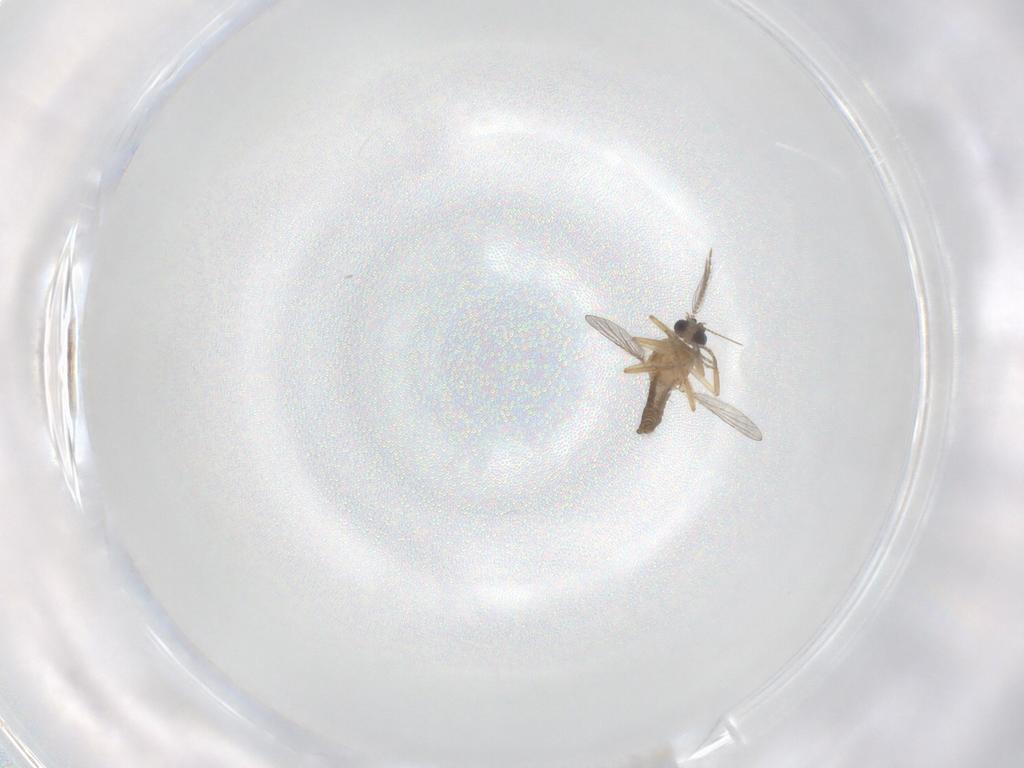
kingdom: Animalia
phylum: Arthropoda
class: Insecta
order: Diptera
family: Ceratopogonidae
